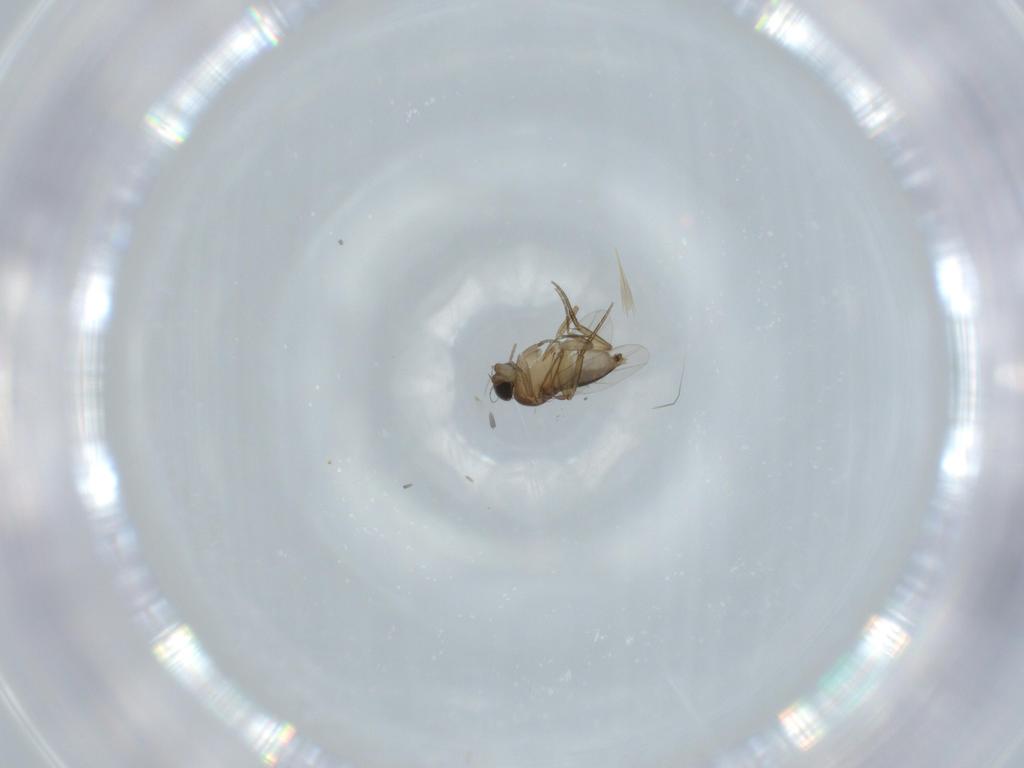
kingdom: Animalia
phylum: Arthropoda
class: Insecta
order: Diptera
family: Phoridae
